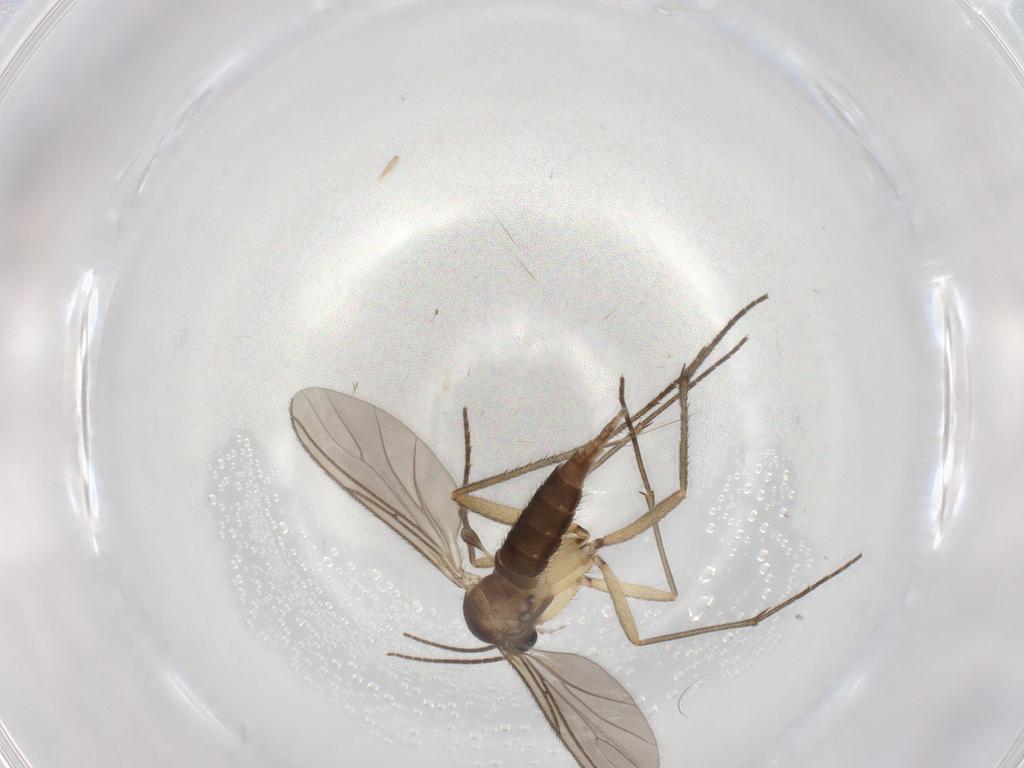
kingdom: Animalia
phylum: Arthropoda
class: Insecta
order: Diptera
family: Sciaridae
